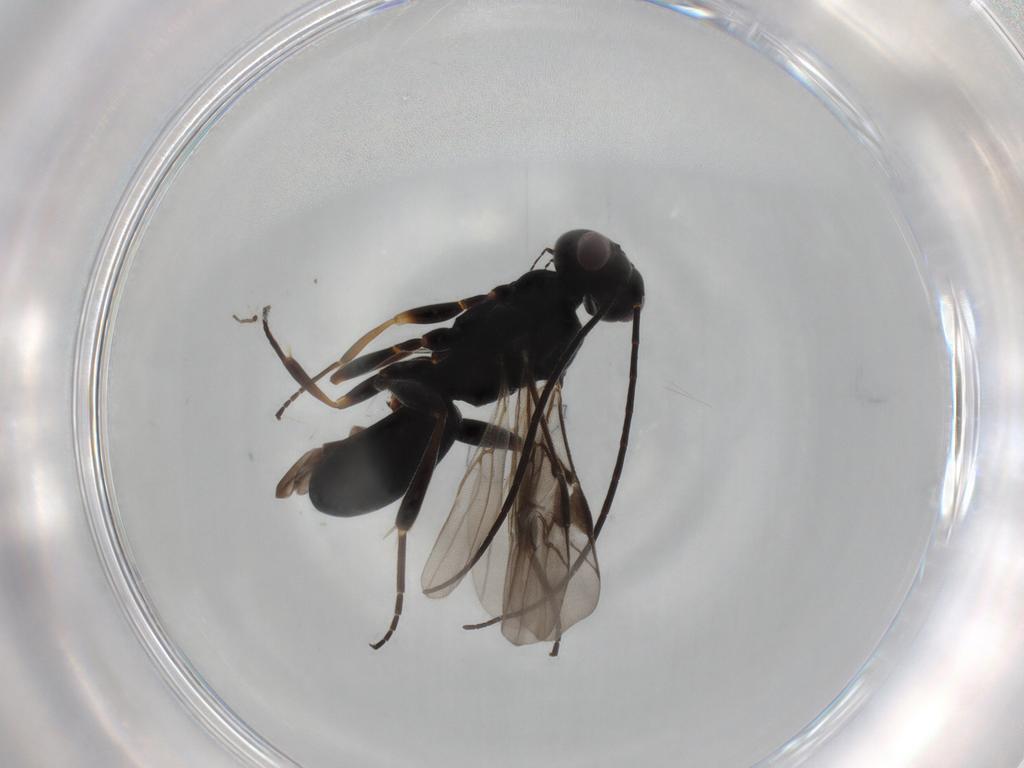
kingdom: Animalia
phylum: Arthropoda
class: Insecta
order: Hymenoptera
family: Braconidae
